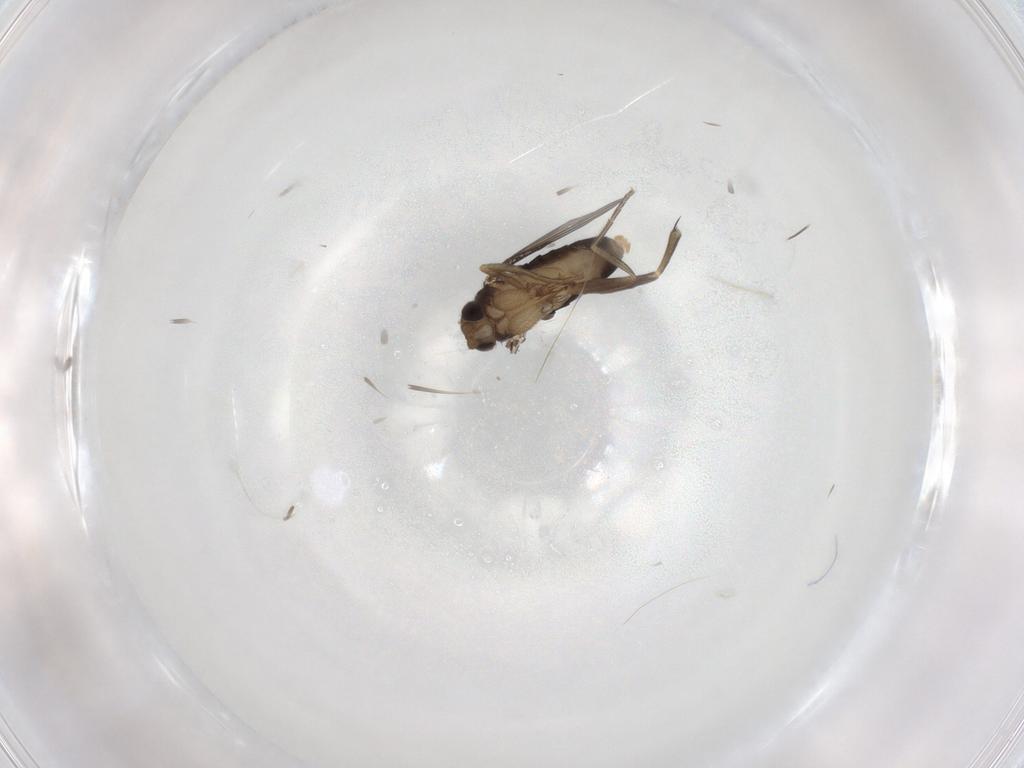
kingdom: Animalia
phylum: Arthropoda
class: Insecta
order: Diptera
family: Phoridae
